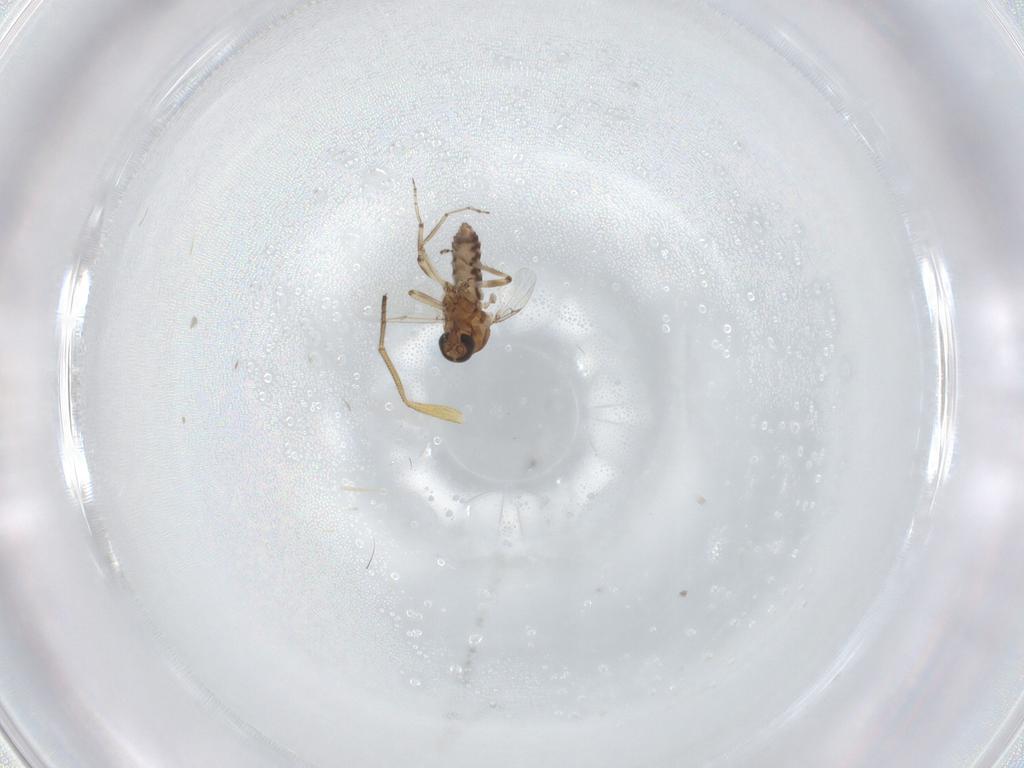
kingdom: Animalia
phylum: Arthropoda
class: Insecta
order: Diptera
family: Ceratopogonidae
